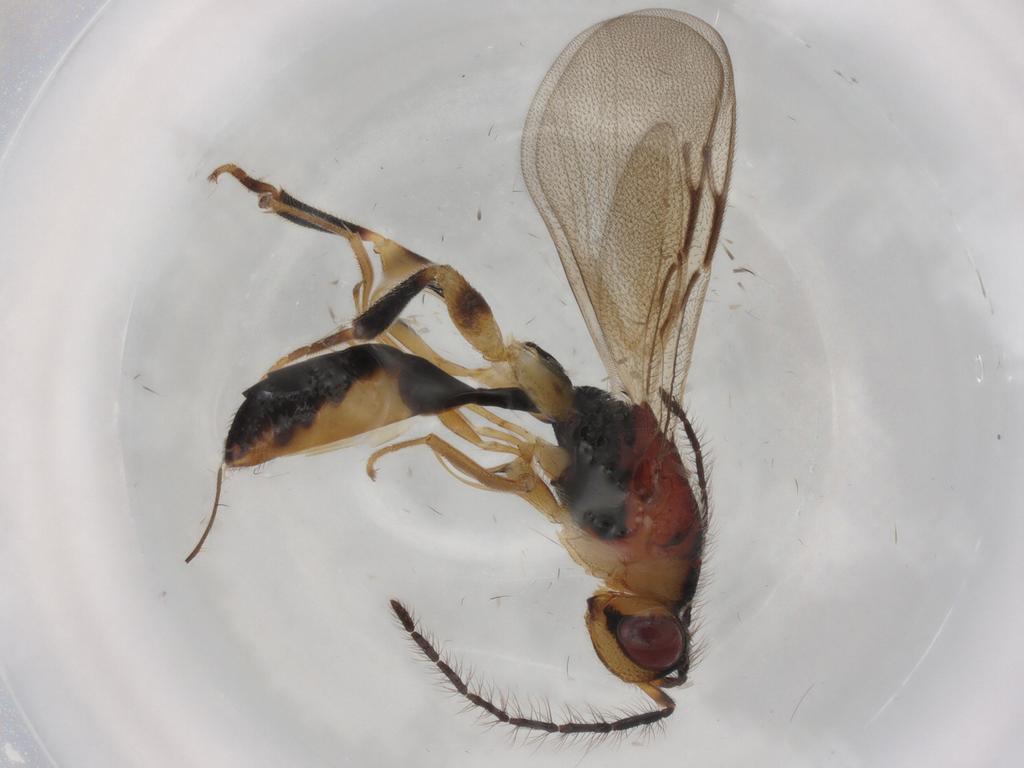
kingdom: Animalia
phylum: Arthropoda
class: Insecta
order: Hymenoptera
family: Eurytomidae
